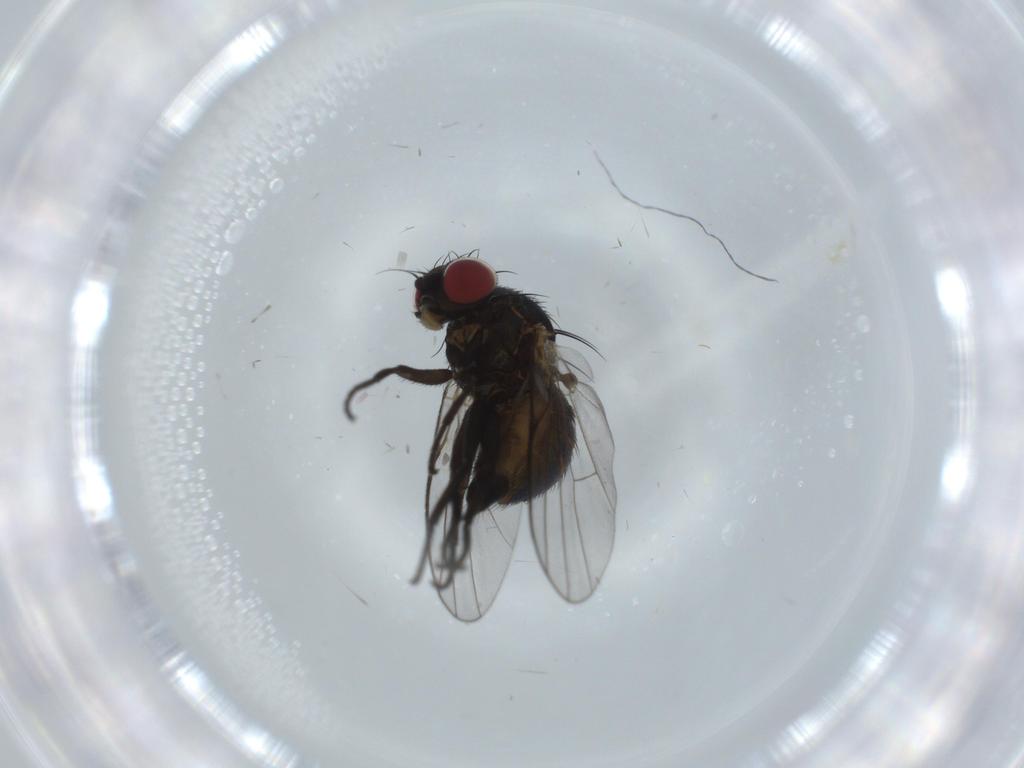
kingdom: Animalia
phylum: Arthropoda
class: Insecta
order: Diptera
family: Agromyzidae
